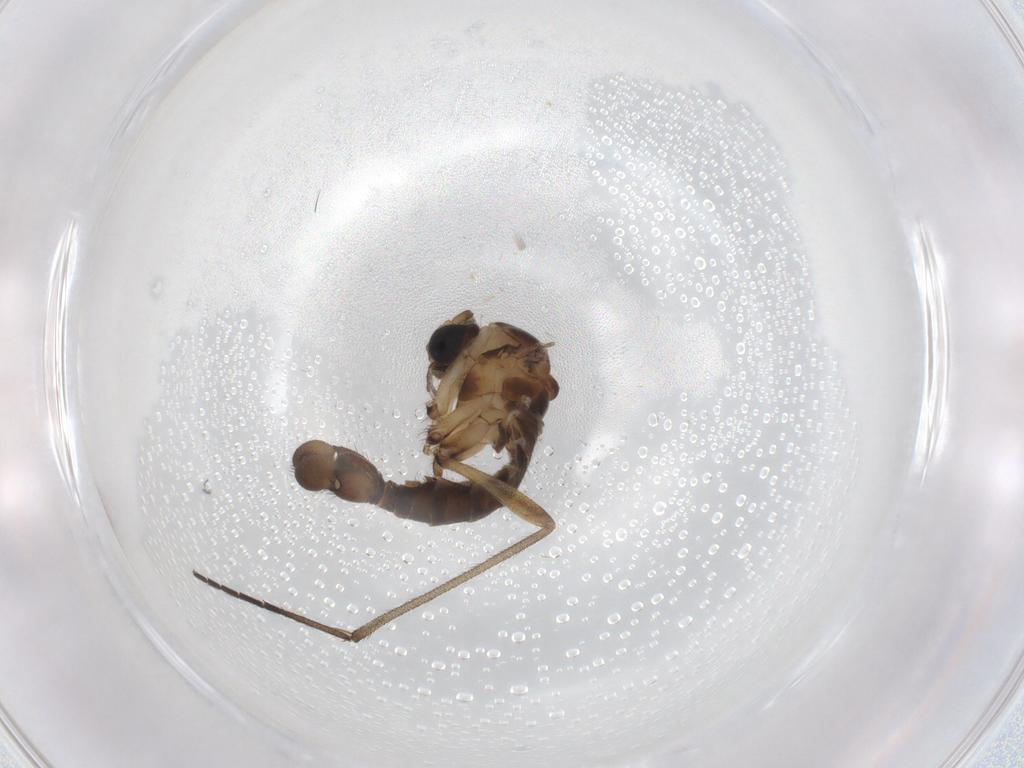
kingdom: Animalia
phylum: Arthropoda
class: Insecta
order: Diptera
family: Sciaridae
